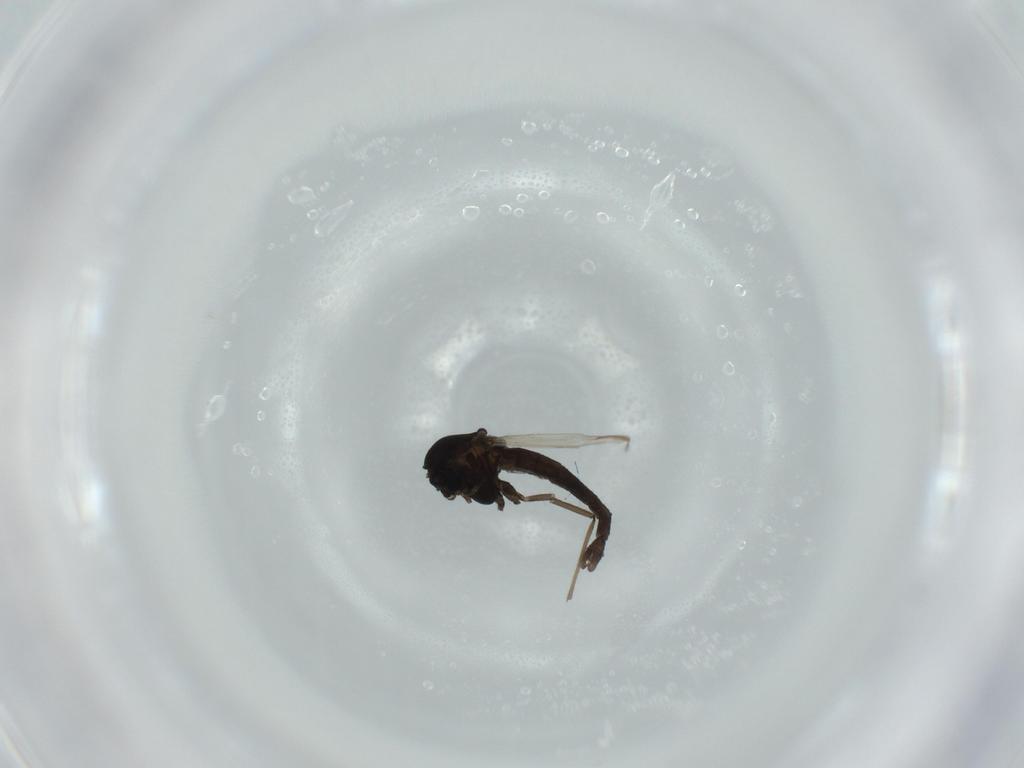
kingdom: Animalia
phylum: Arthropoda
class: Insecta
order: Diptera
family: Chironomidae
